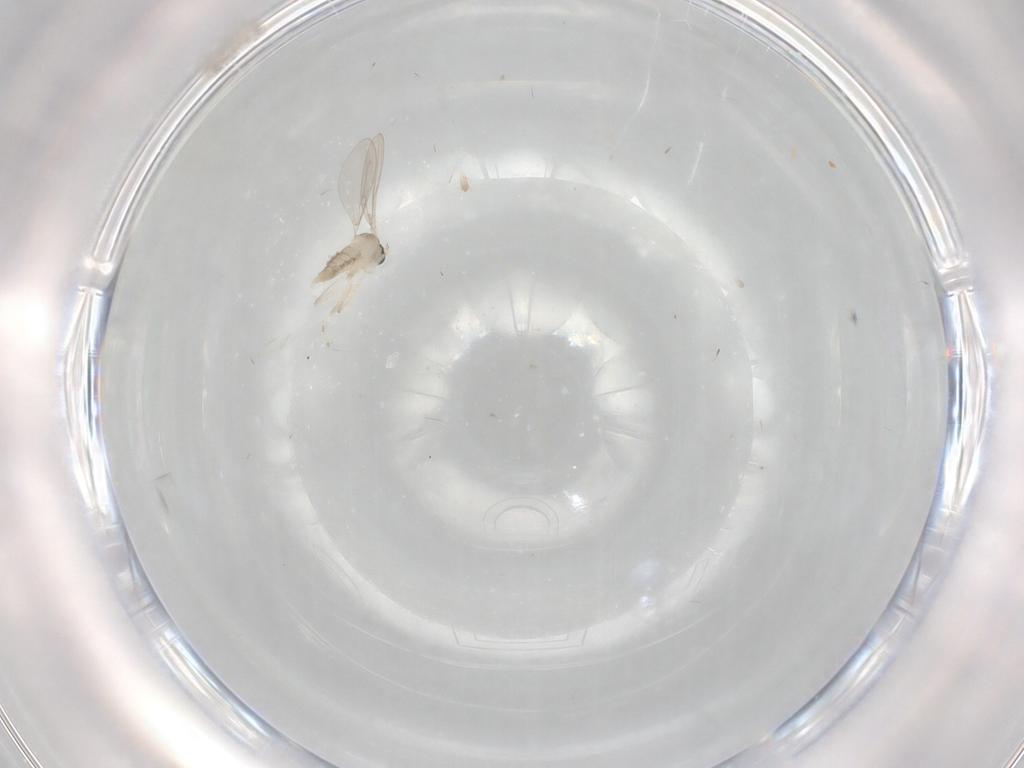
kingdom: Animalia
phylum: Arthropoda
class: Insecta
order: Diptera
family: Cecidomyiidae
